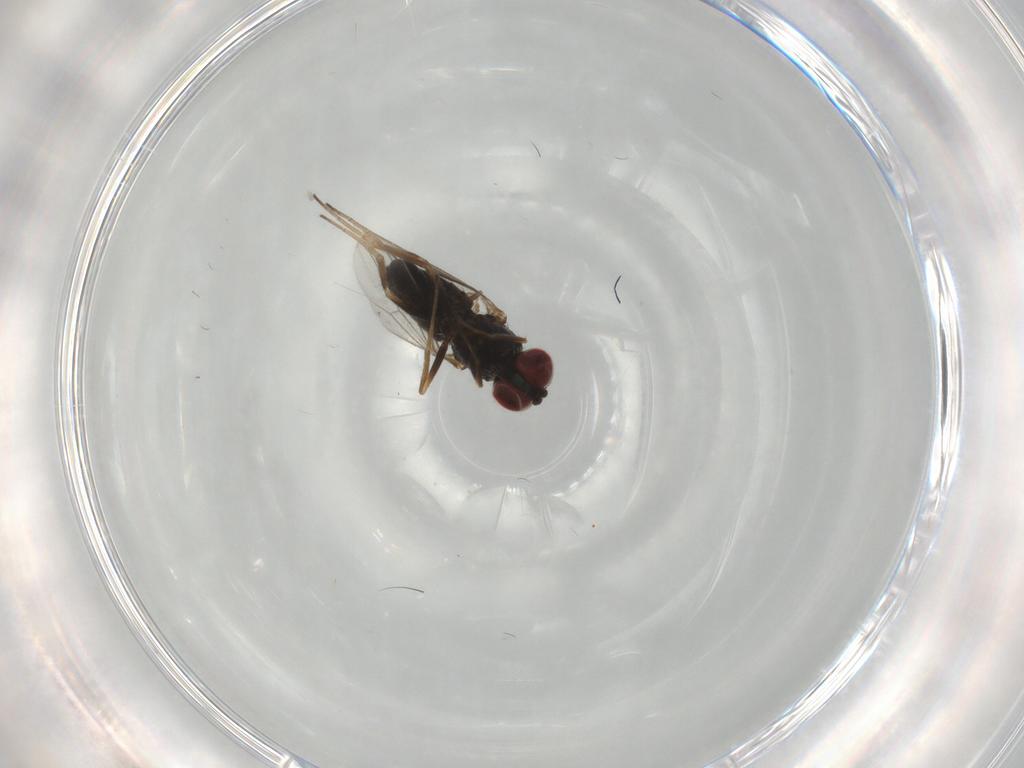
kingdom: Animalia
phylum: Arthropoda
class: Insecta
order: Diptera
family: Dolichopodidae
